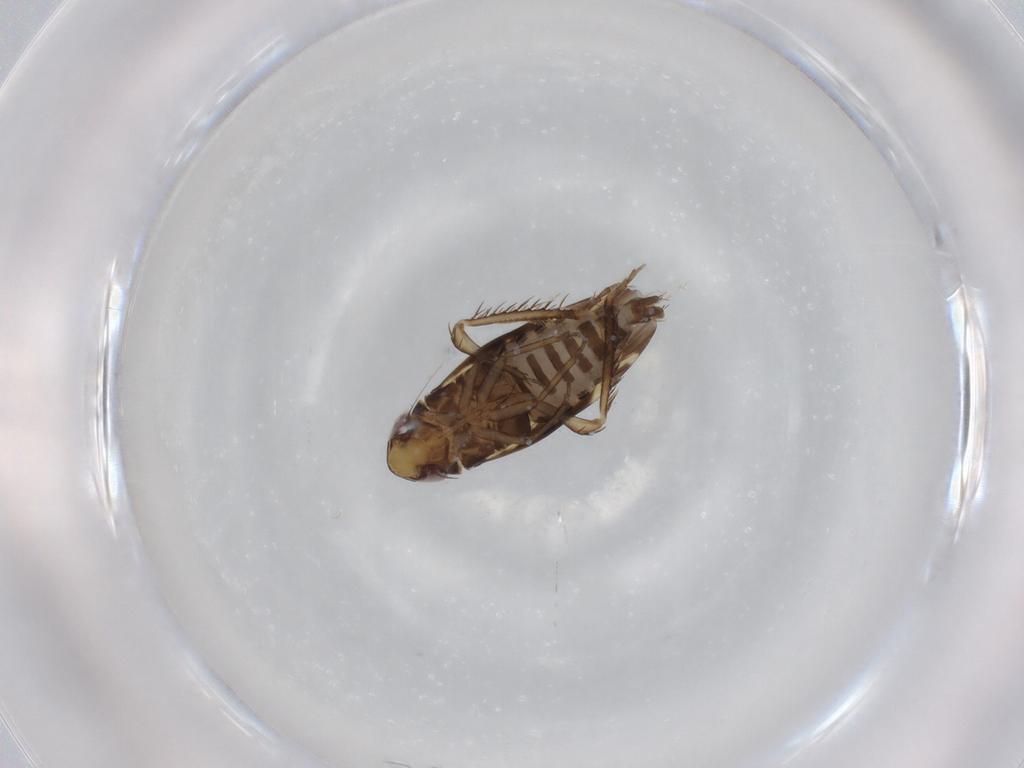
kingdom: Animalia
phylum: Arthropoda
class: Insecta
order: Hemiptera
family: Cicadellidae
